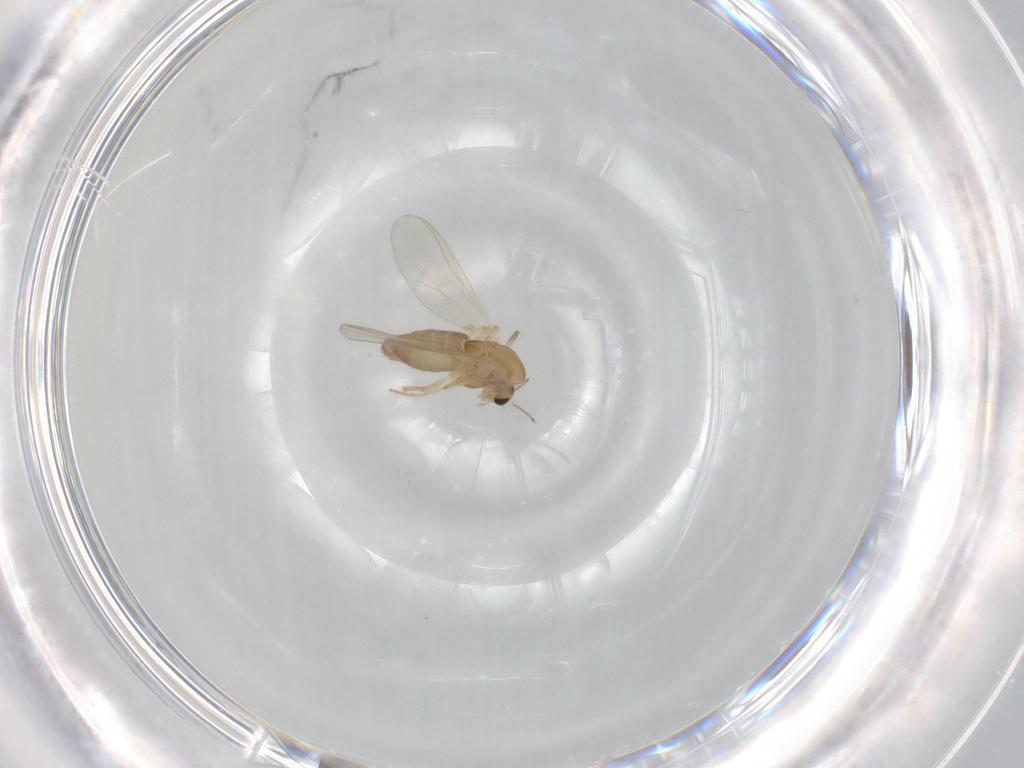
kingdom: Animalia
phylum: Arthropoda
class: Insecta
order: Diptera
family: Chironomidae
